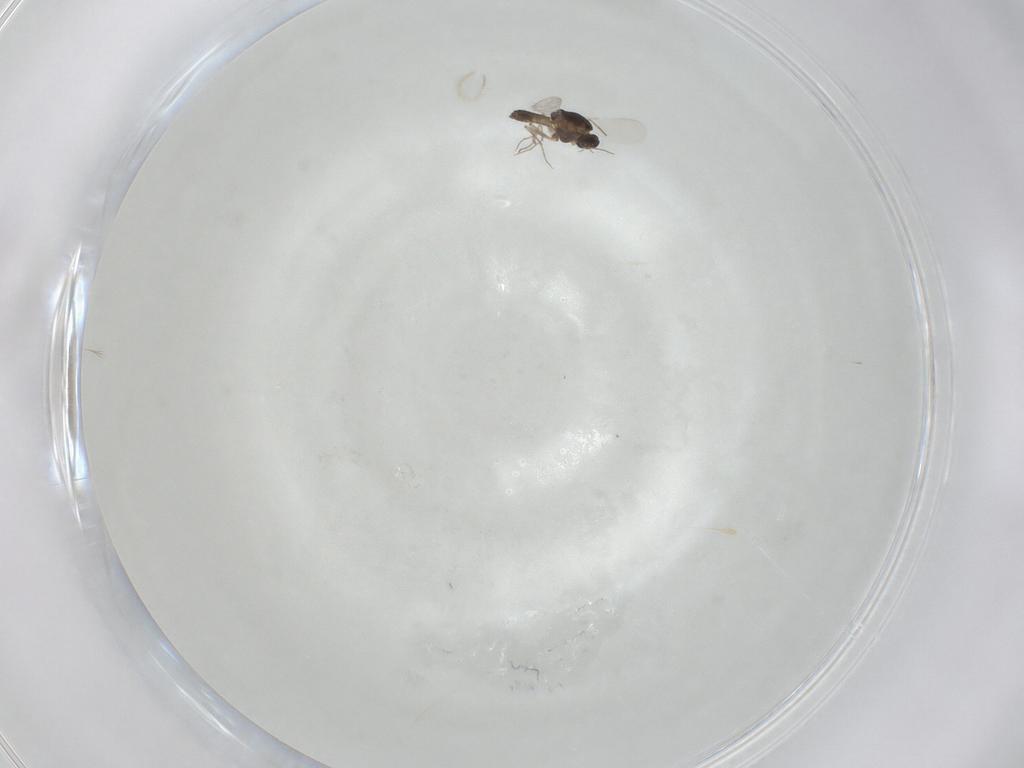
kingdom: Animalia
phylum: Arthropoda
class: Insecta
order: Diptera
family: Chironomidae
